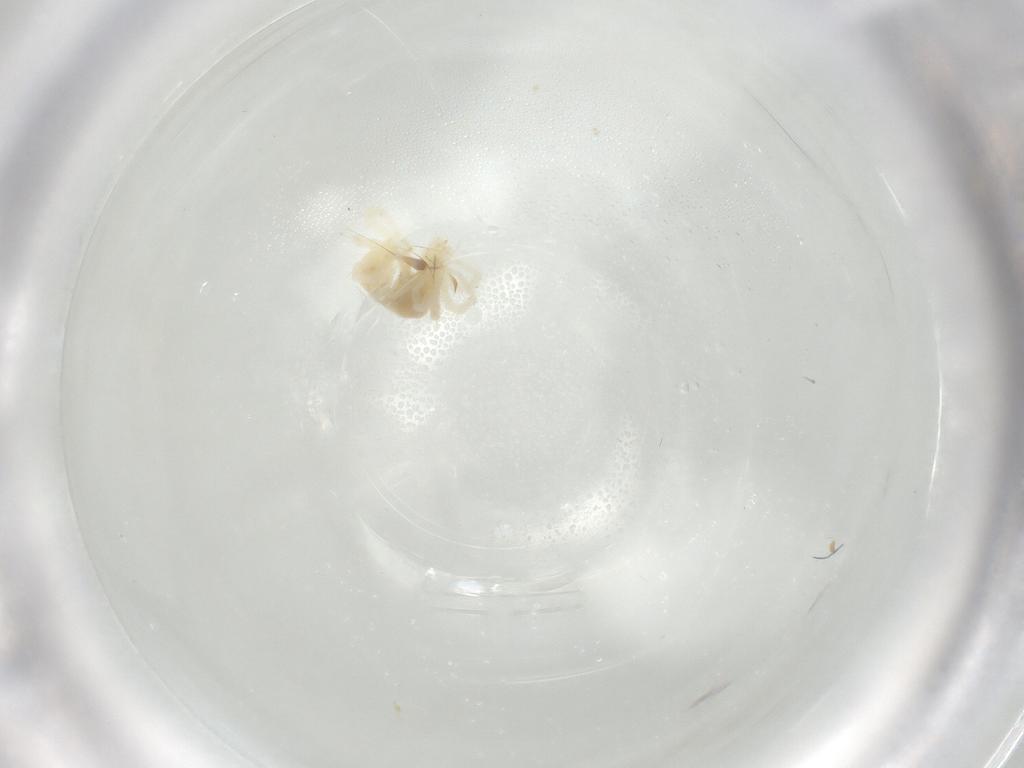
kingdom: Animalia
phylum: Arthropoda
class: Arachnida
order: Trombidiformes
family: Anystidae
